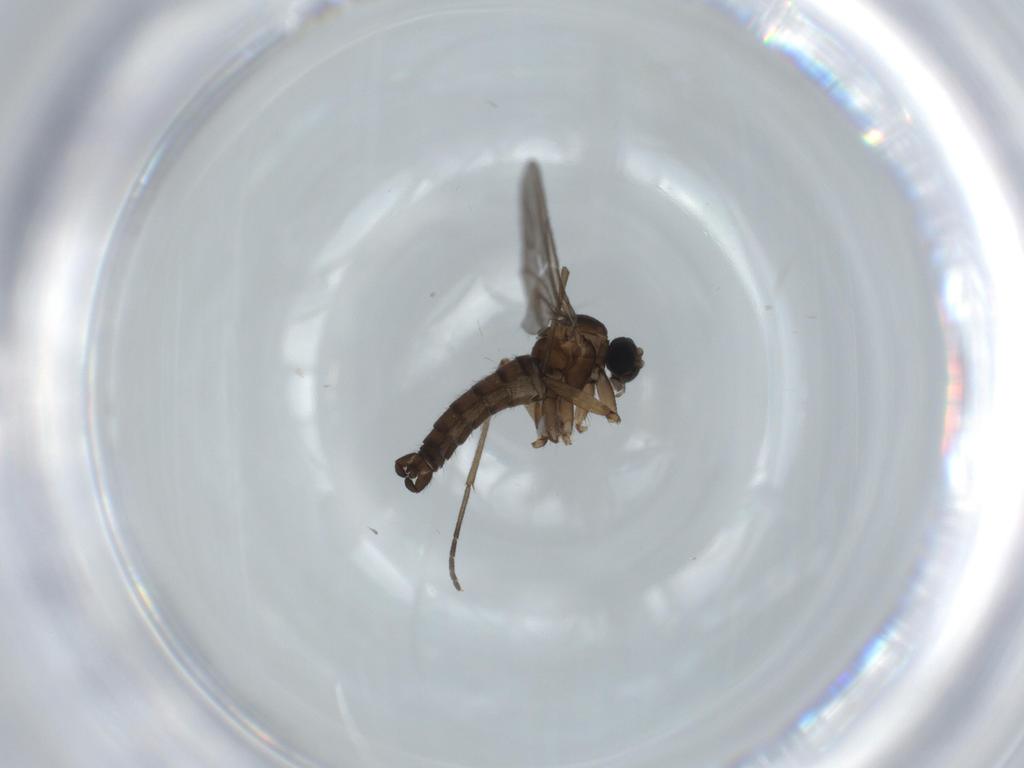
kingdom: Animalia
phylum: Arthropoda
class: Insecta
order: Diptera
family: Sciaridae
